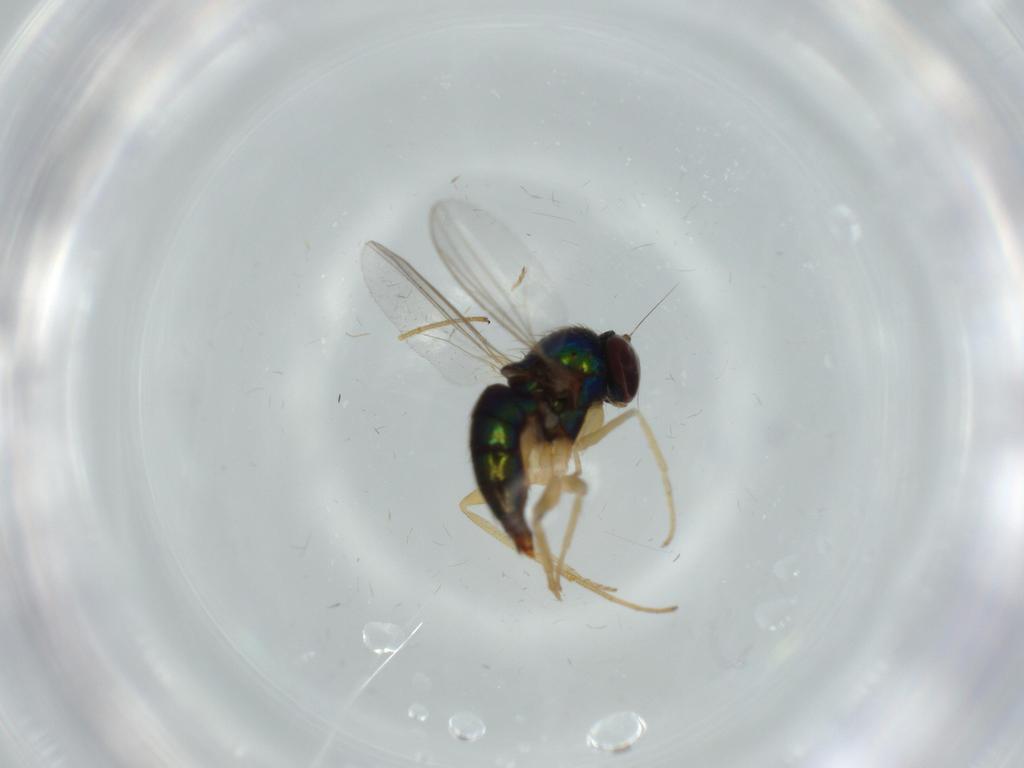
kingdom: Animalia
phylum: Arthropoda
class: Insecta
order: Diptera
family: Dolichopodidae
